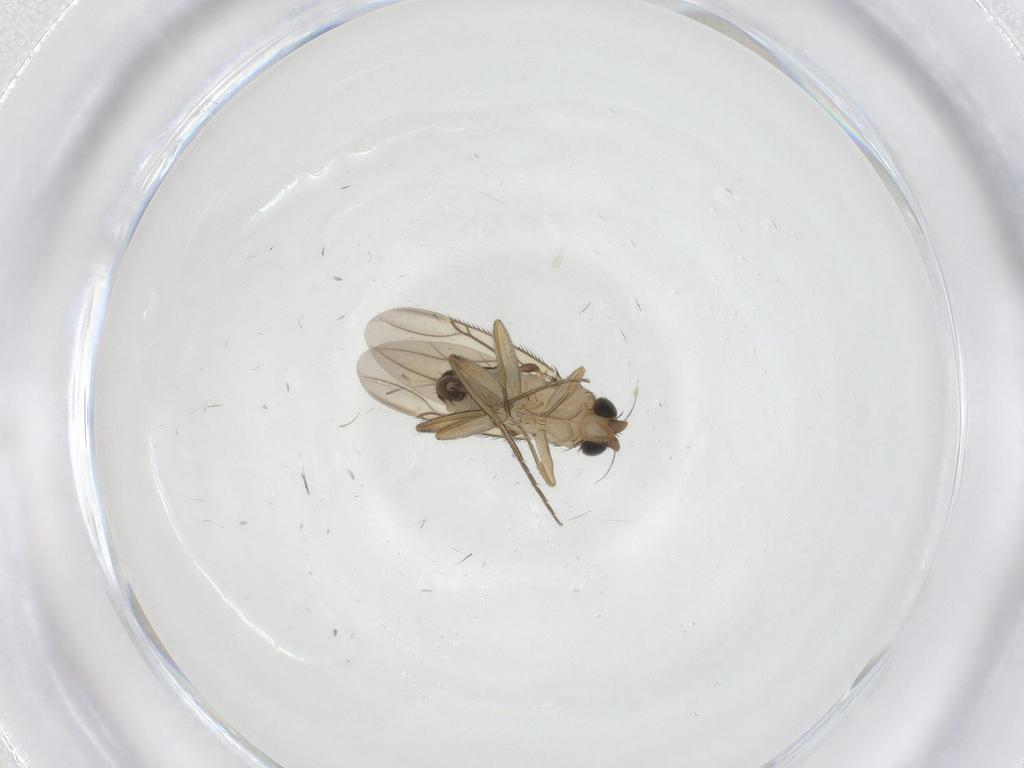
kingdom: Animalia
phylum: Arthropoda
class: Insecta
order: Diptera
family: Phoridae
